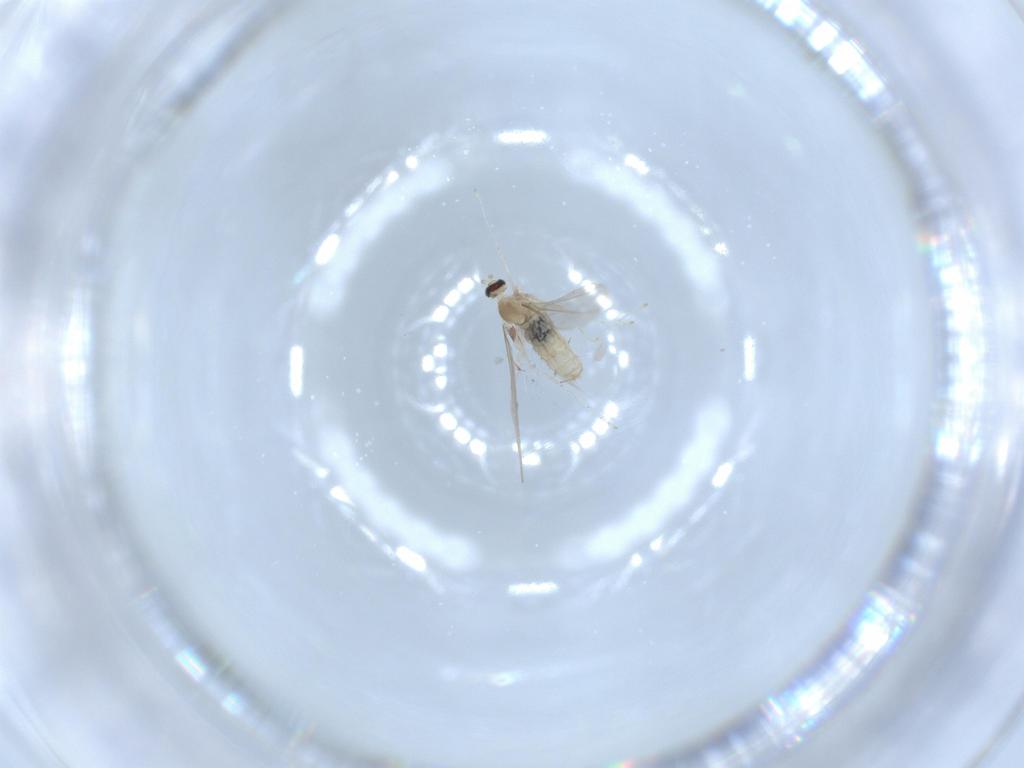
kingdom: Animalia
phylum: Arthropoda
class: Insecta
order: Diptera
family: Cecidomyiidae
